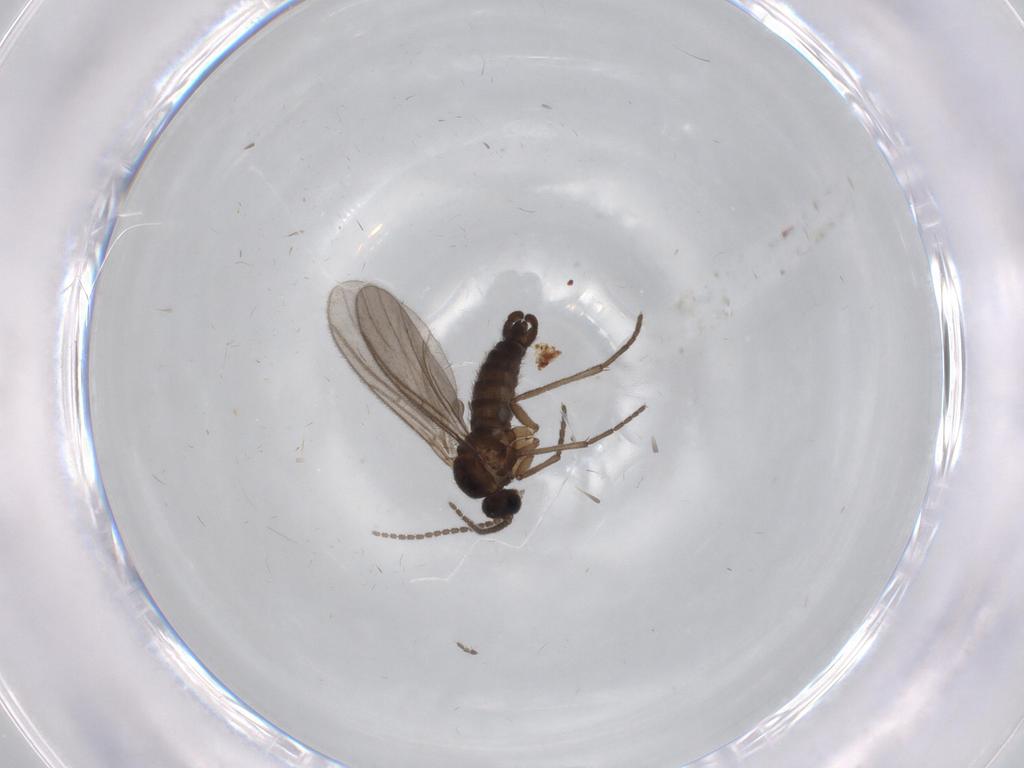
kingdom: Animalia
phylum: Arthropoda
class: Insecta
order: Diptera
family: Sciaridae
